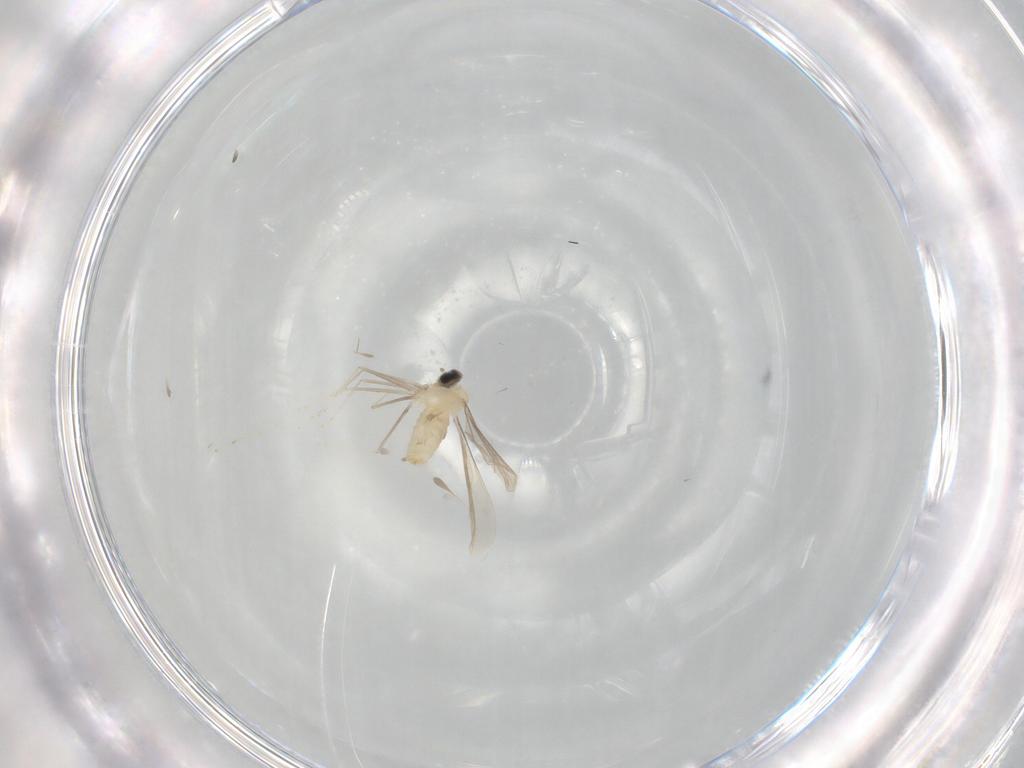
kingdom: Animalia
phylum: Arthropoda
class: Insecta
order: Diptera
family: Cecidomyiidae
